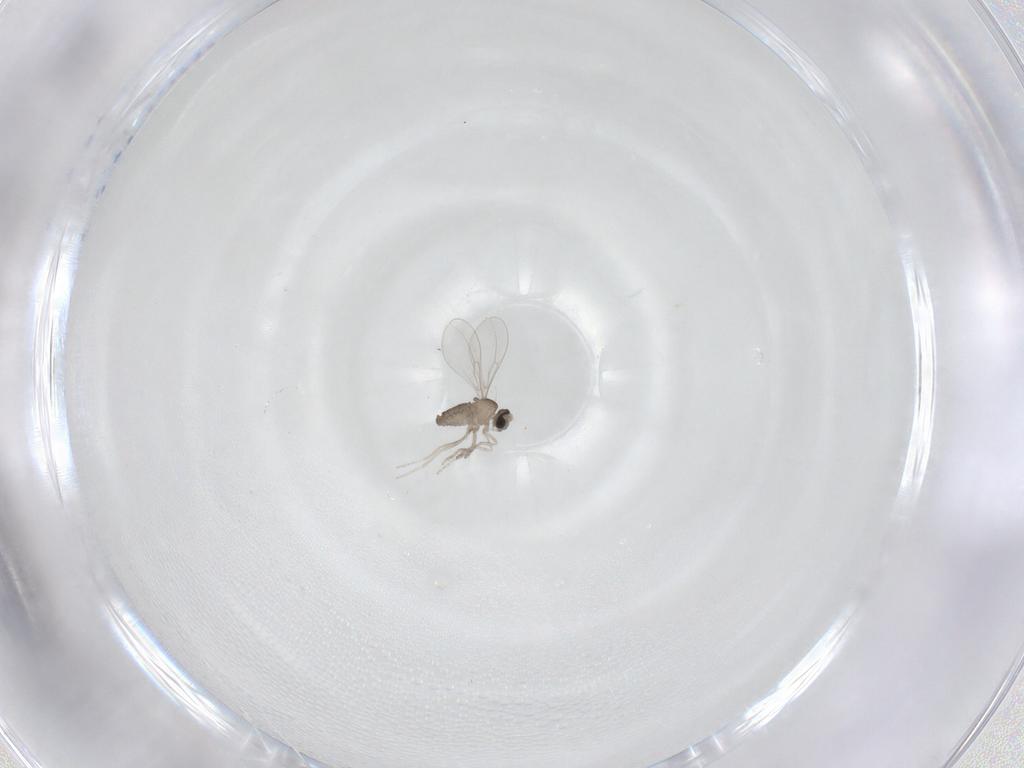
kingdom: Animalia
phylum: Arthropoda
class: Insecta
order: Diptera
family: Cecidomyiidae
